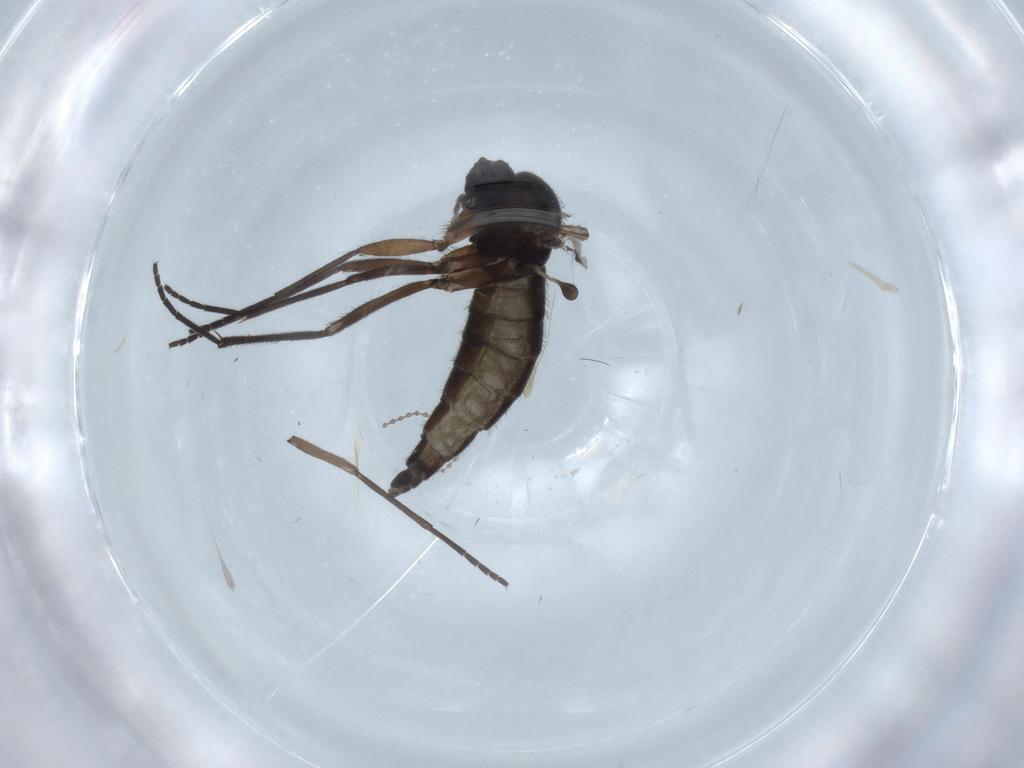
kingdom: Animalia
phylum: Arthropoda
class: Insecta
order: Diptera
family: Sciaridae
